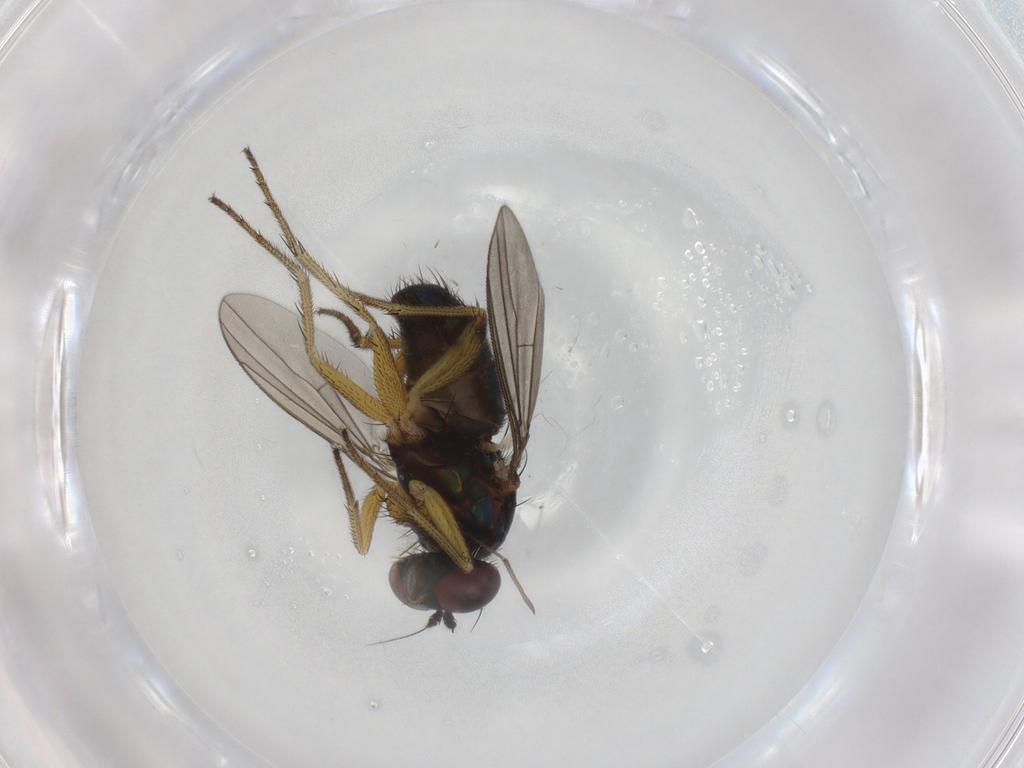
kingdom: Animalia
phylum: Arthropoda
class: Insecta
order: Diptera
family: Dolichopodidae
